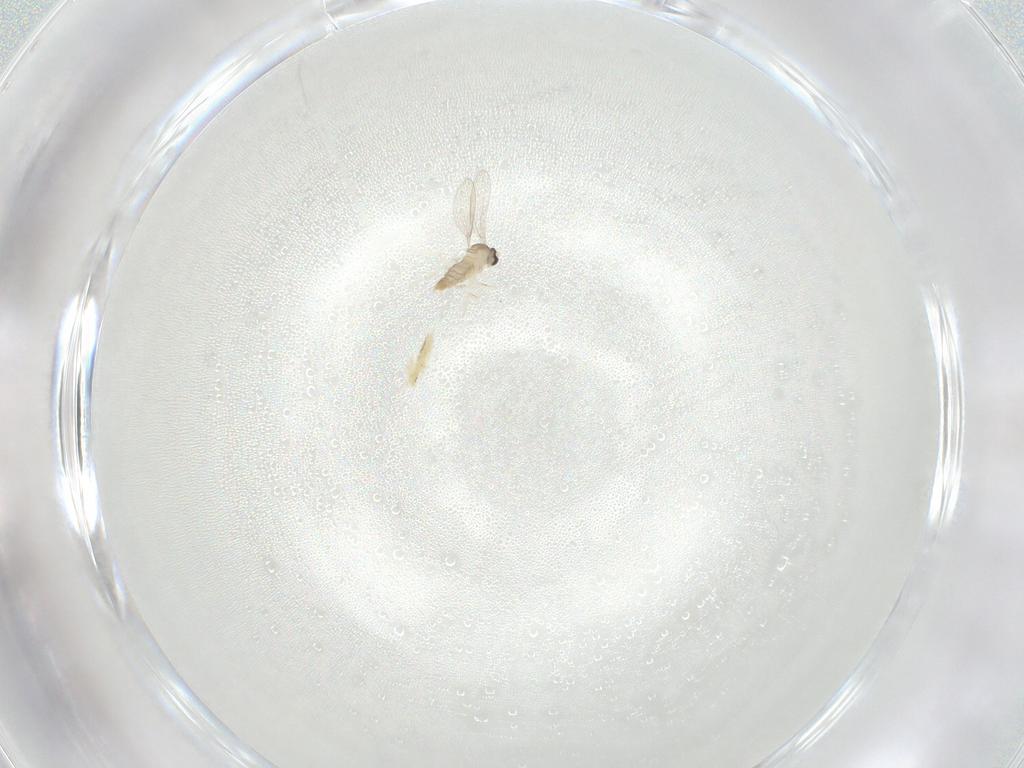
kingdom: Animalia
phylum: Arthropoda
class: Insecta
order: Diptera
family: Cecidomyiidae
